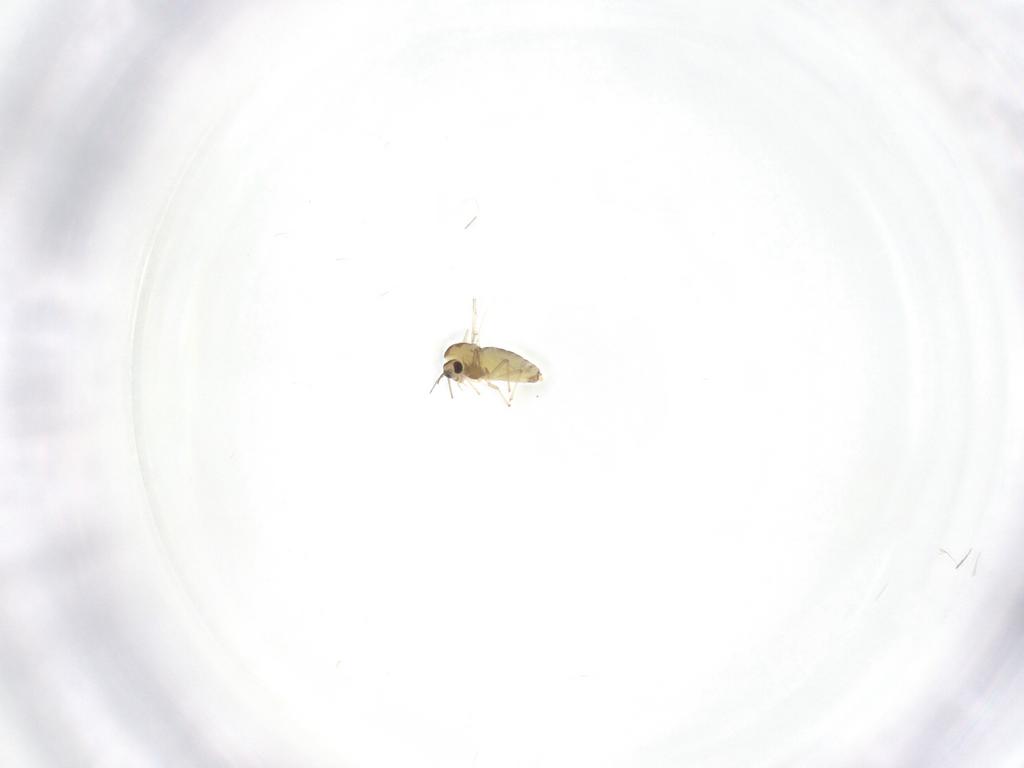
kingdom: Animalia
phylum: Arthropoda
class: Insecta
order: Diptera
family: Chironomidae
